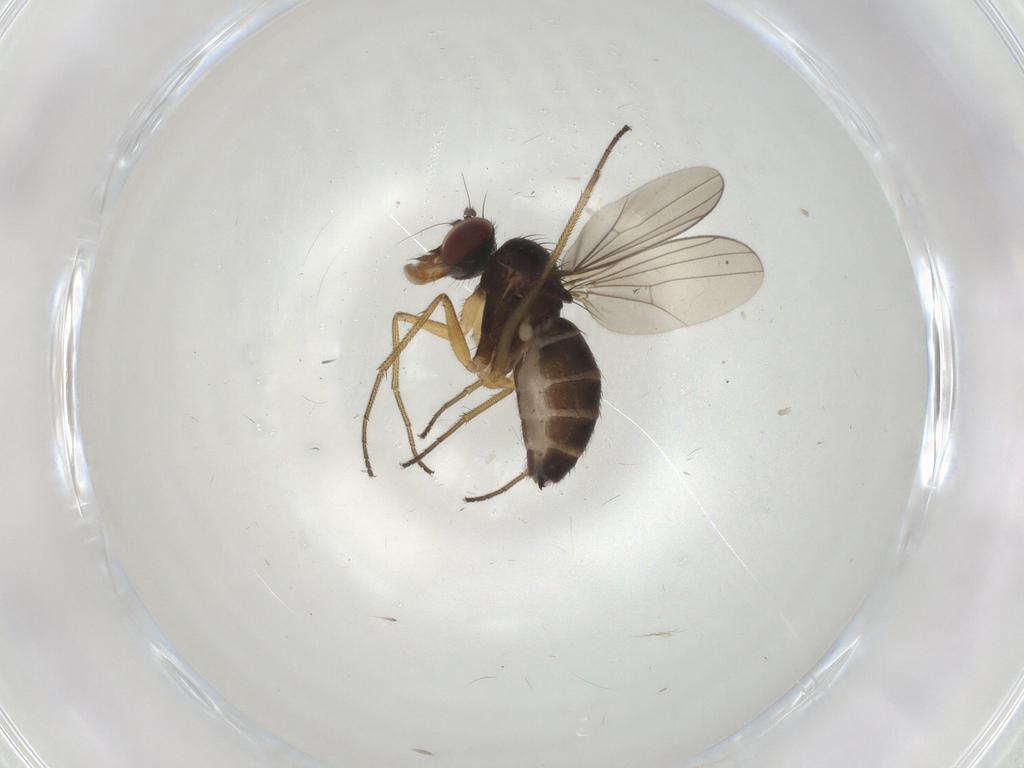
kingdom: Animalia
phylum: Arthropoda
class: Insecta
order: Diptera
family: Dolichopodidae
